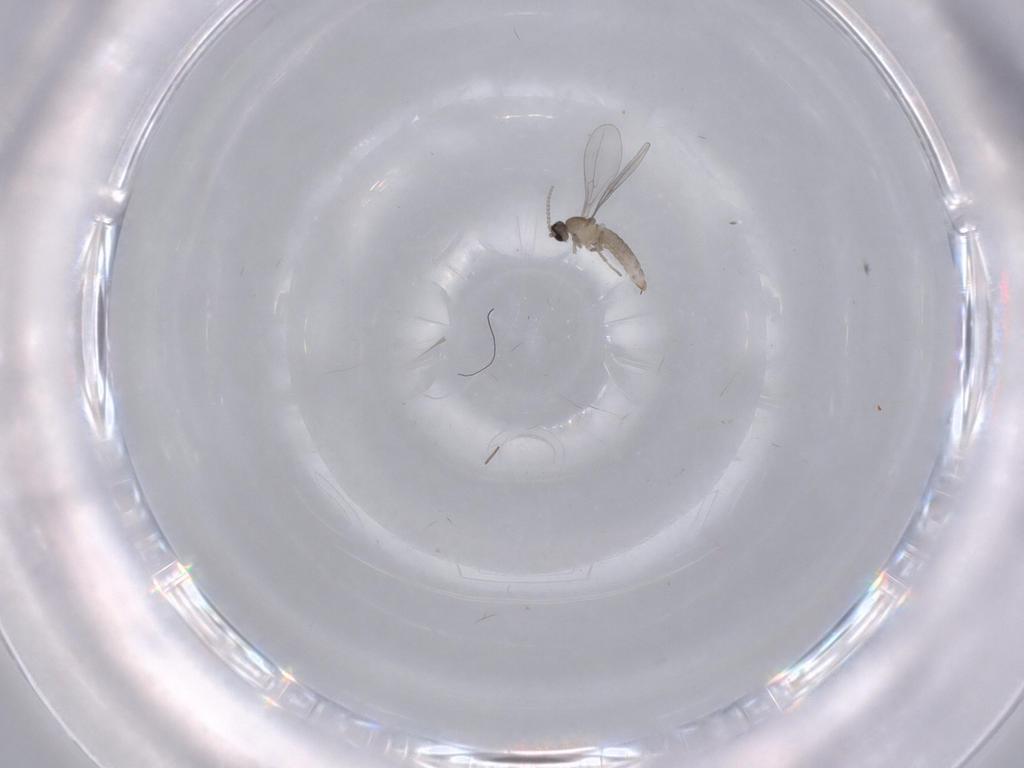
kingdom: Animalia
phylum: Arthropoda
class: Insecta
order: Diptera
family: Cecidomyiidae
